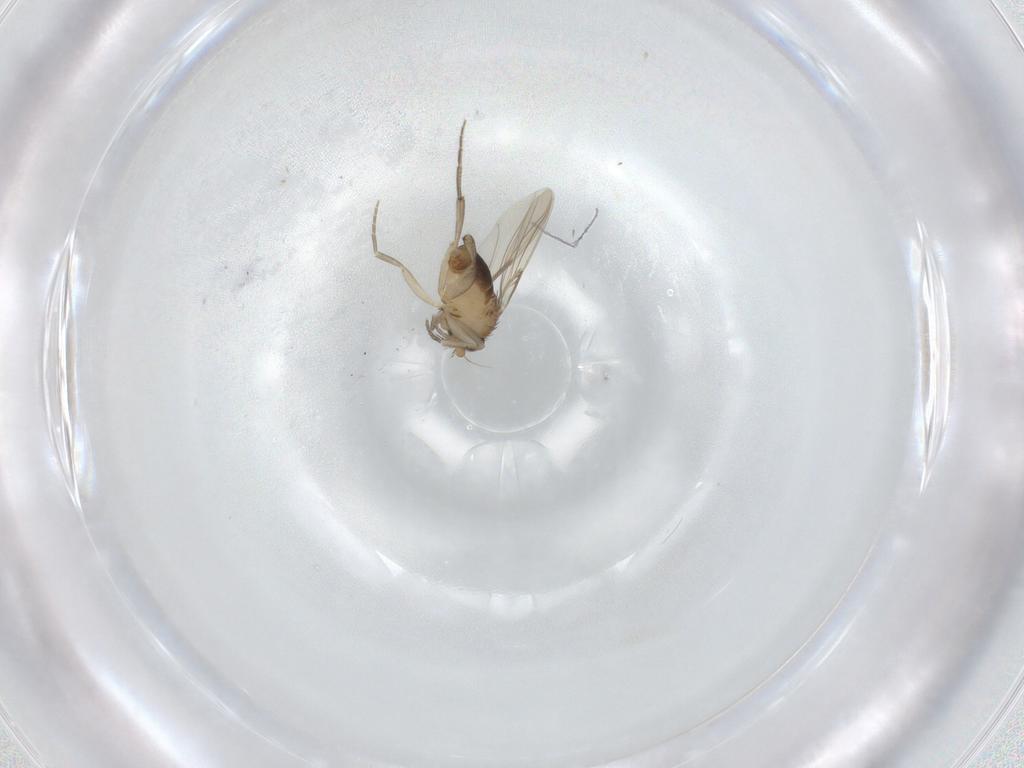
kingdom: Animalia
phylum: Arthropoda
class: Insecta
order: Diptera
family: Phoridae
